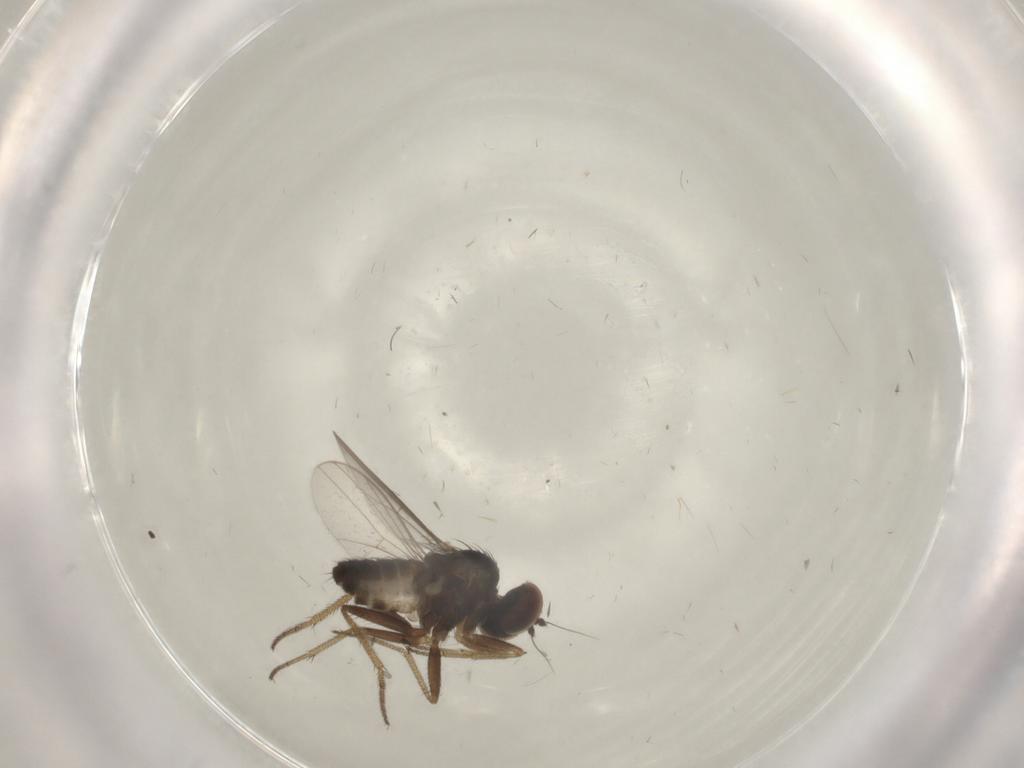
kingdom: Animalia
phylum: Arthropoda
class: Insecta
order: Diptera
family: Dolichopodidae
